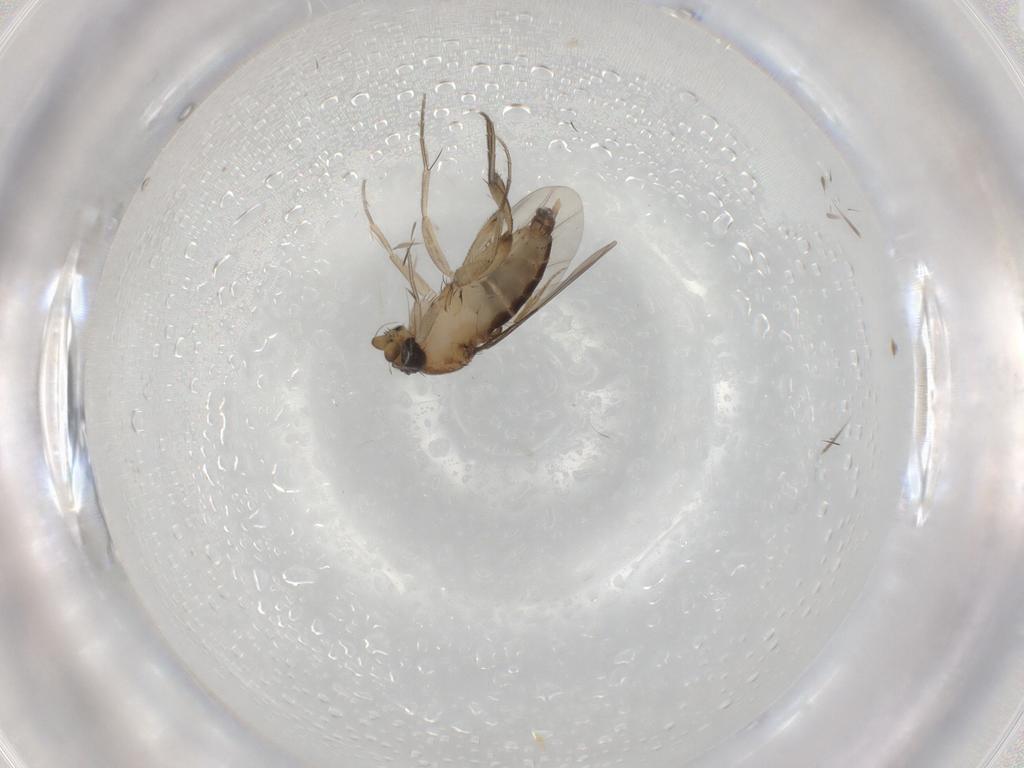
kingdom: Animalia
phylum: Arthropoda
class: Insecta
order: Diptera
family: Phoridae
